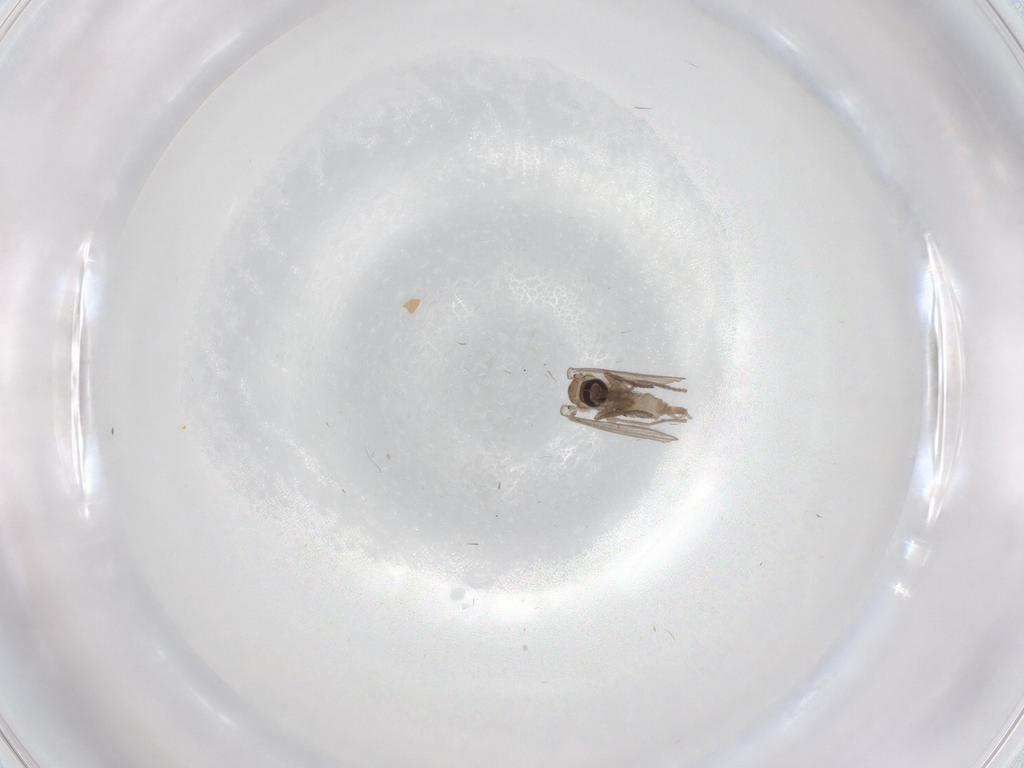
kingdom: Animalia
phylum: Arthropoda
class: Insecta
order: Diptera
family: Psychodidae
